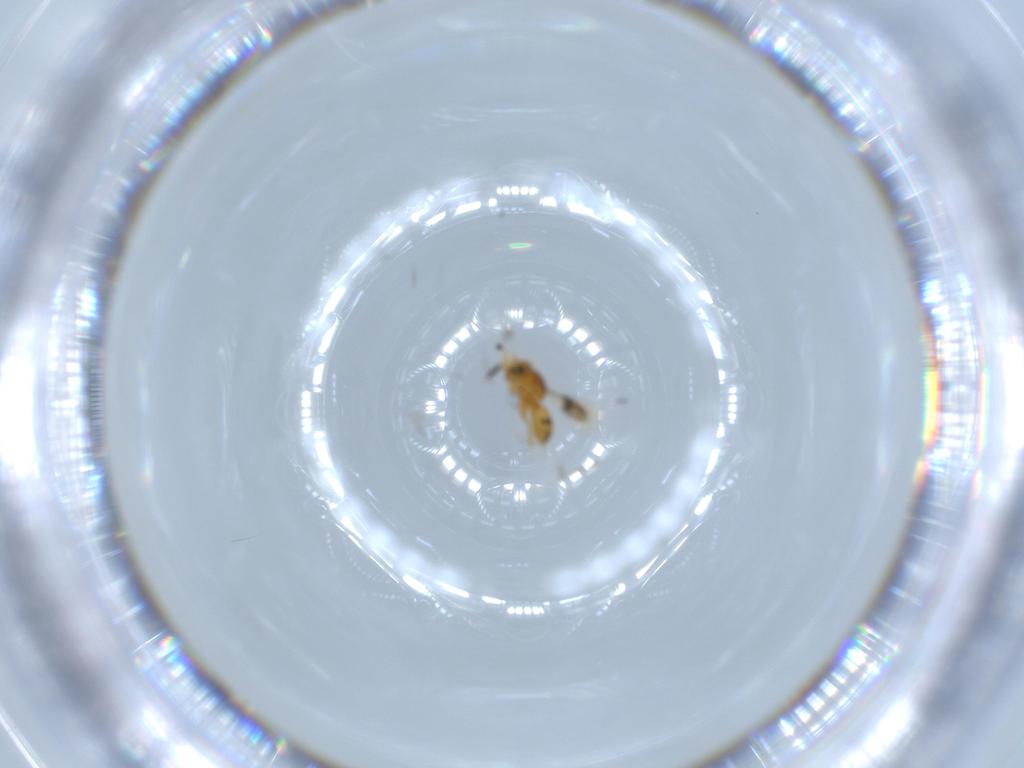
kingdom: Animalia
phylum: Arthropoda
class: Insecta
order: Hymenoptera
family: Scelionidae
